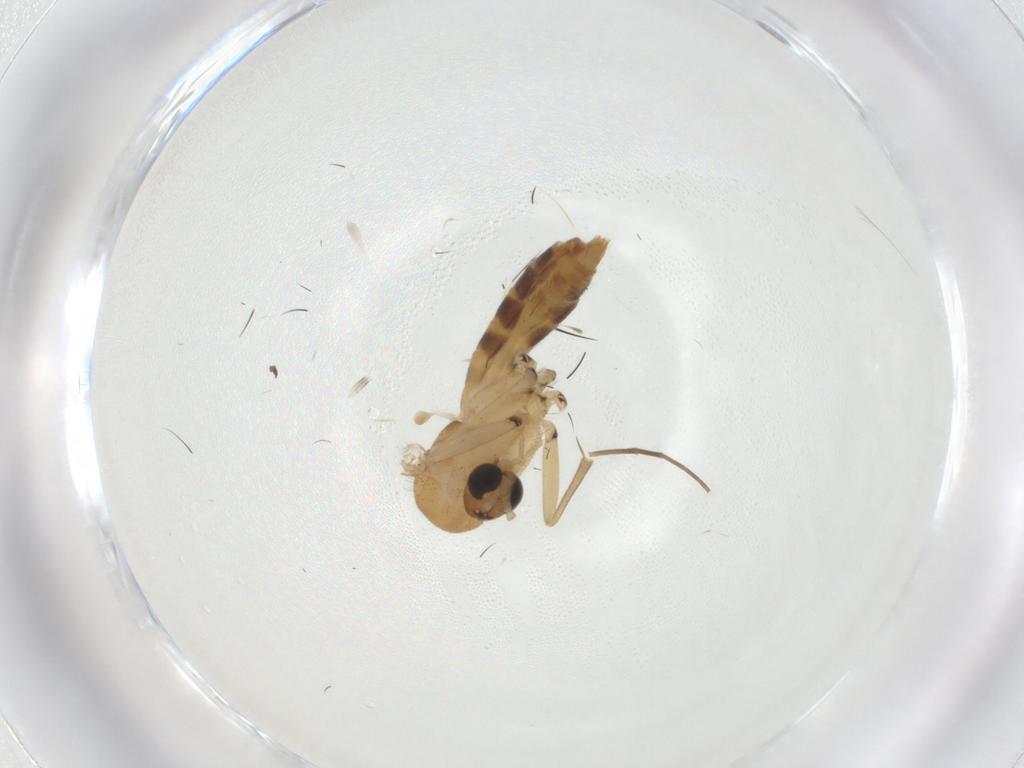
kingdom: Animalia
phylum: Arthropoda
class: Insecta
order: Diptera
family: Mycetophilidae
